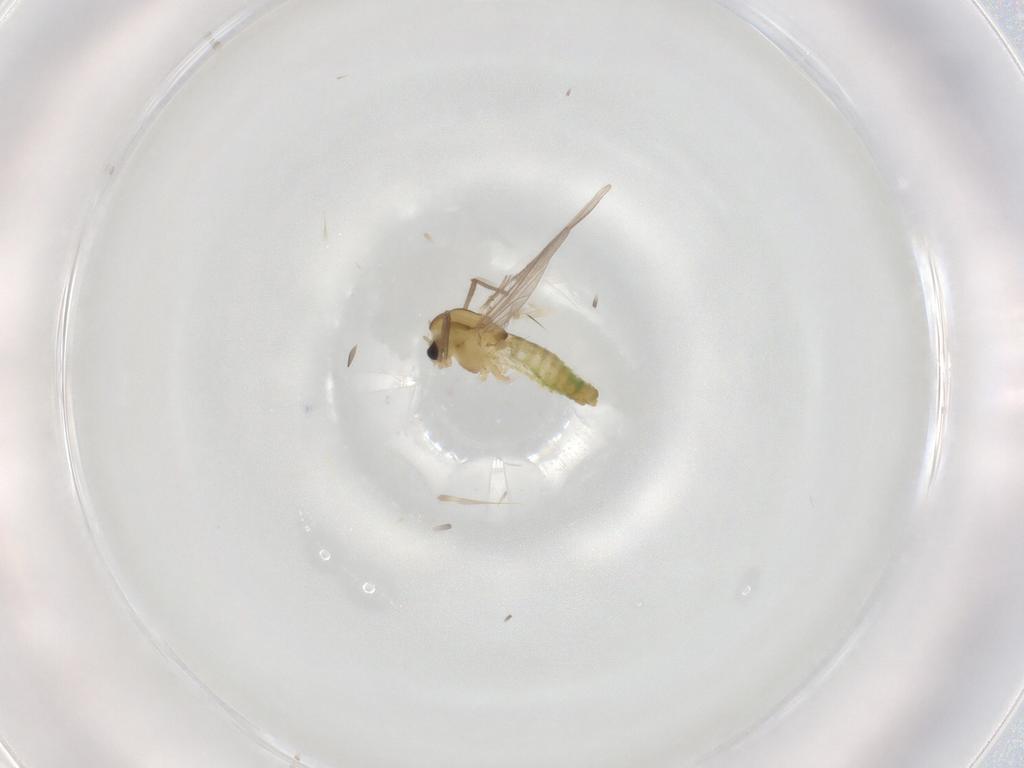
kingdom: Animalia
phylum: Arthropoda
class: Insecta
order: Diptera
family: Chironomidae
